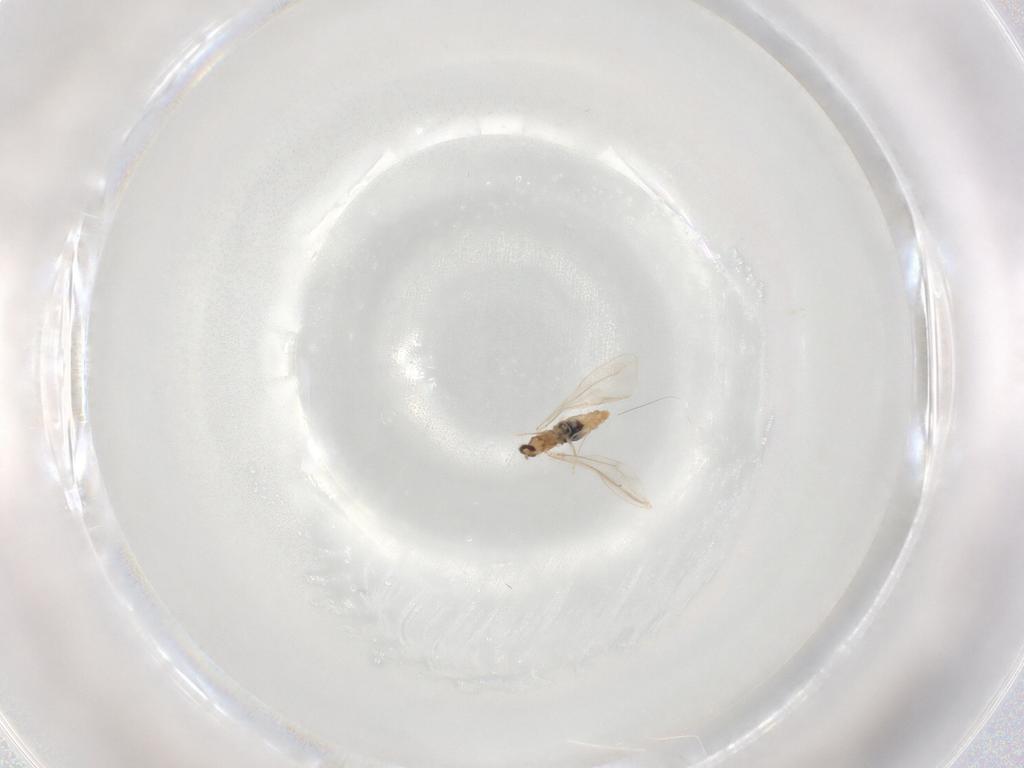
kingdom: Animalia
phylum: Arthropoda
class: Insecta
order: Diptera
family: Cecidomyiidae
